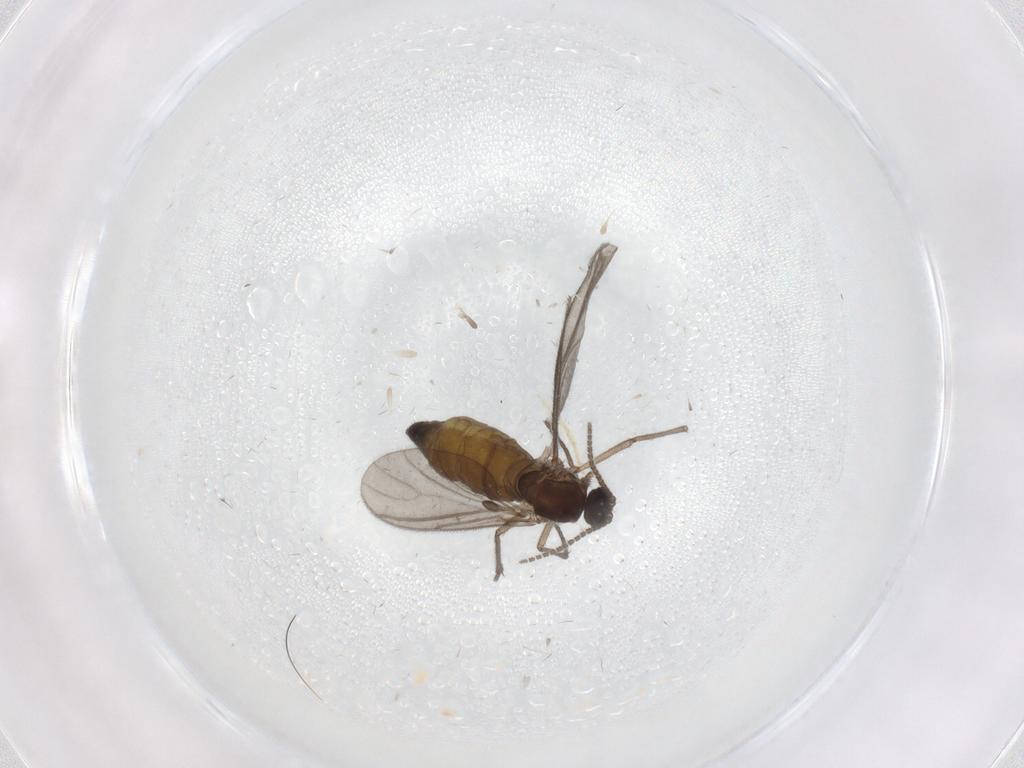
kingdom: Animalia
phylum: Arthropoda
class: Insecta
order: Diptera
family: Sciaridae
